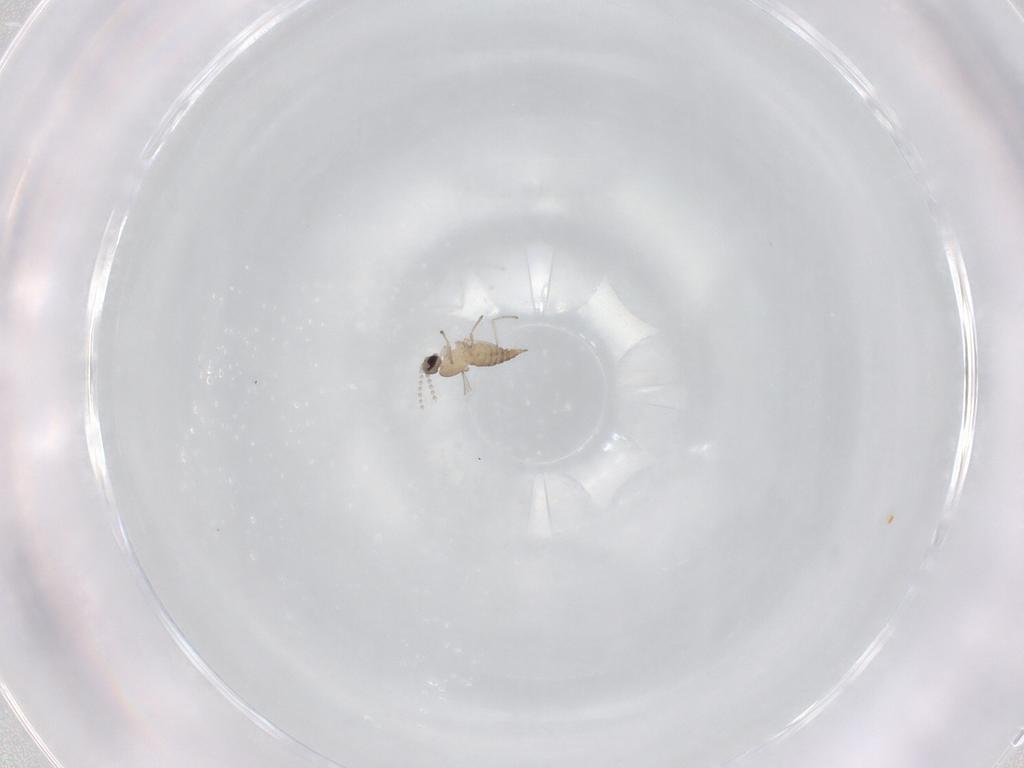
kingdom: Animalia
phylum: Arthropoda
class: Insecta
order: Diptera
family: Cecidomyiidae
